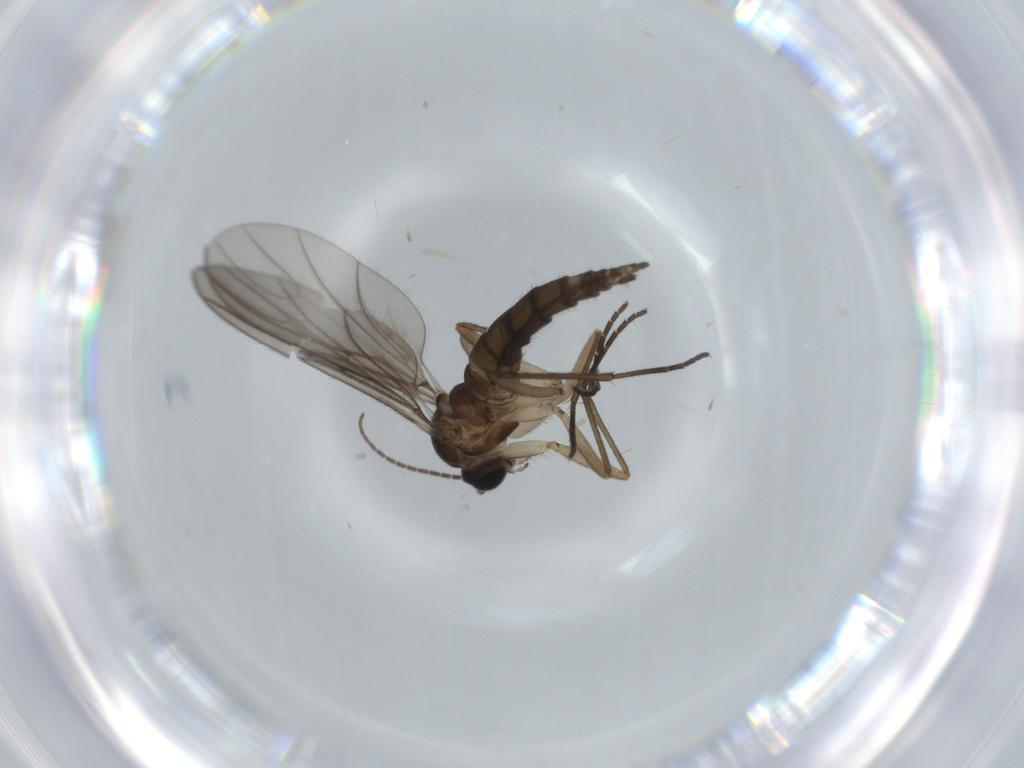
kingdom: Animalia
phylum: Arthropoda
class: Insecta
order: Diptera
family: Sciaridae
